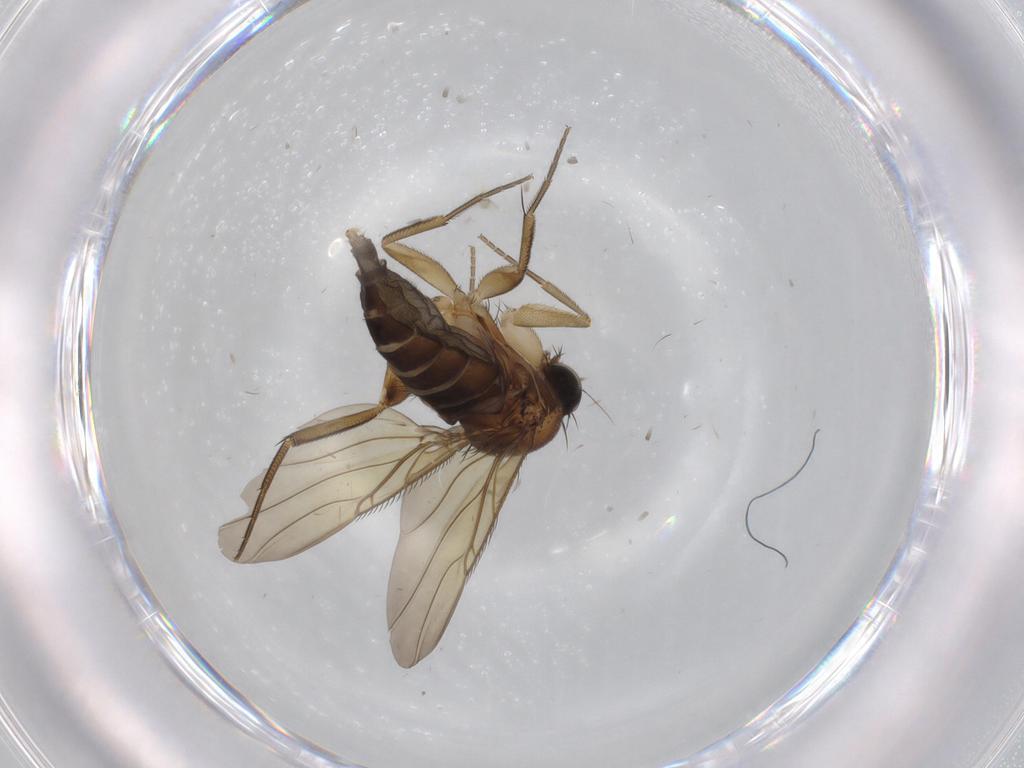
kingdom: Animalia
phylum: Arthropoda
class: Insecta
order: Diptera
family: Phoridae
